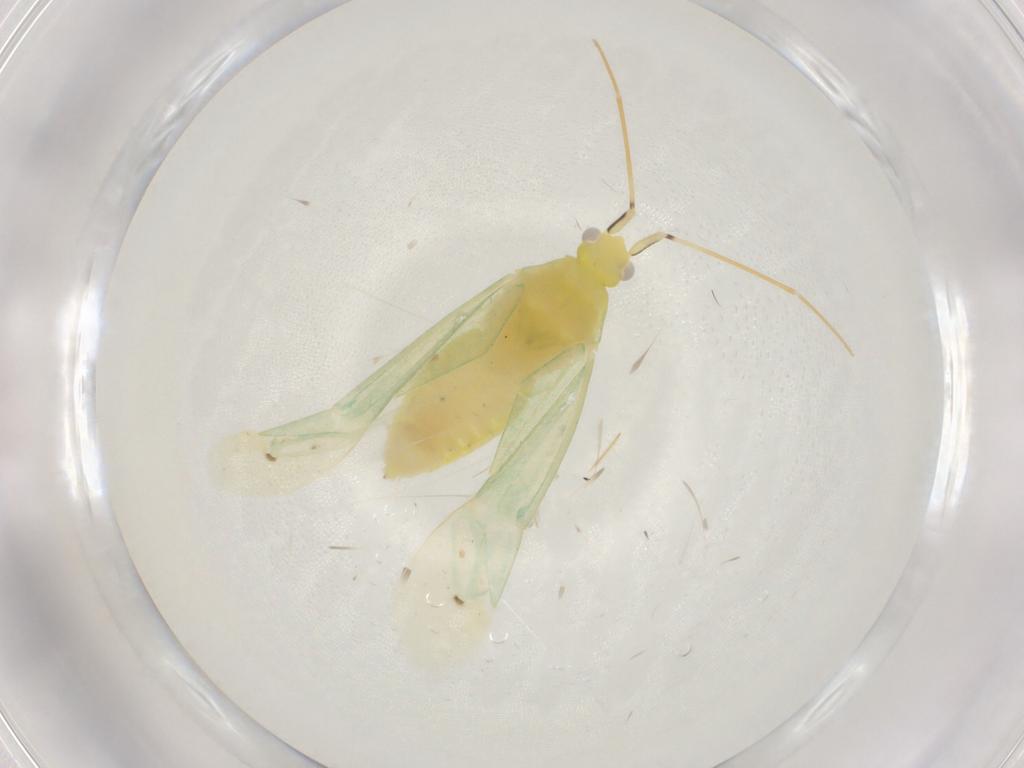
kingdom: Animalia
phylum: Arthropoda
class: Insecta
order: Hemiptera
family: Miridae
